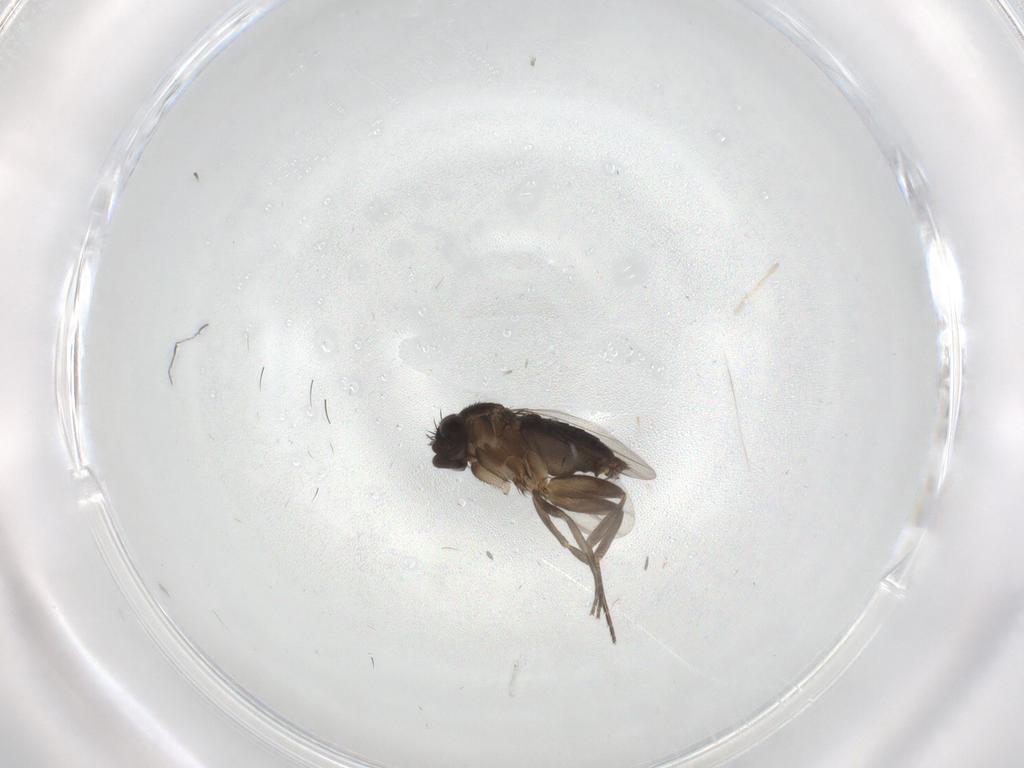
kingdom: Animalia
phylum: Arthropoda
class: Insecta
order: Diptera
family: Phoridae
